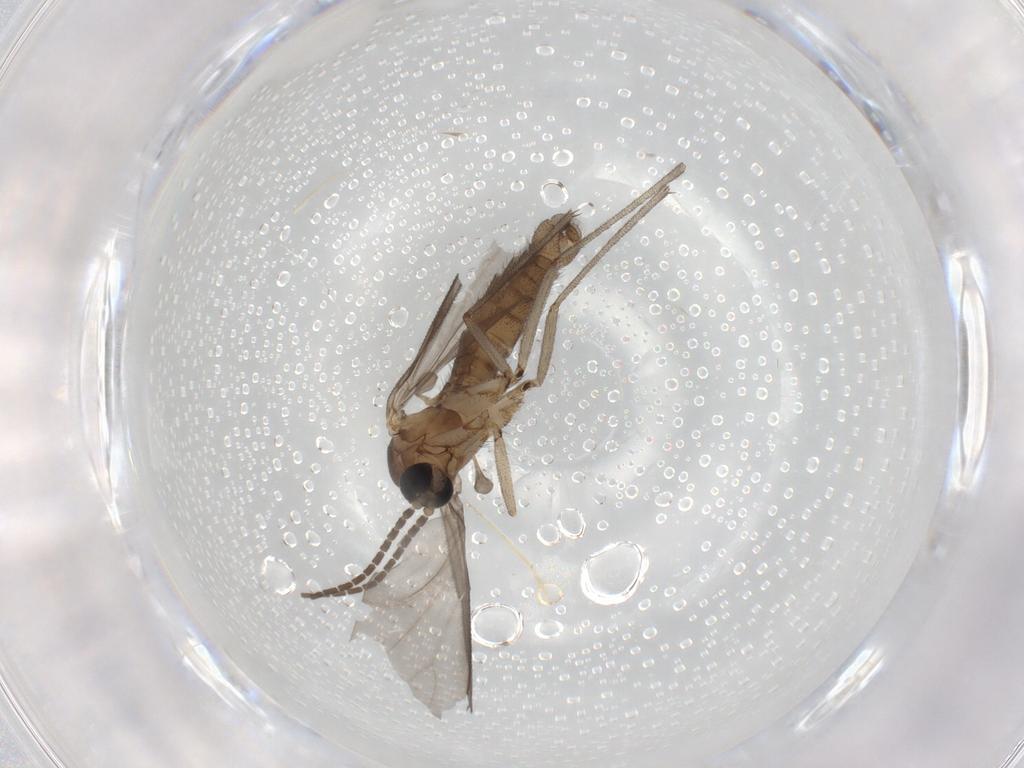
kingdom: Animalia
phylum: Arthropoda
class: Insecta
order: Diptera
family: Sciaridae
